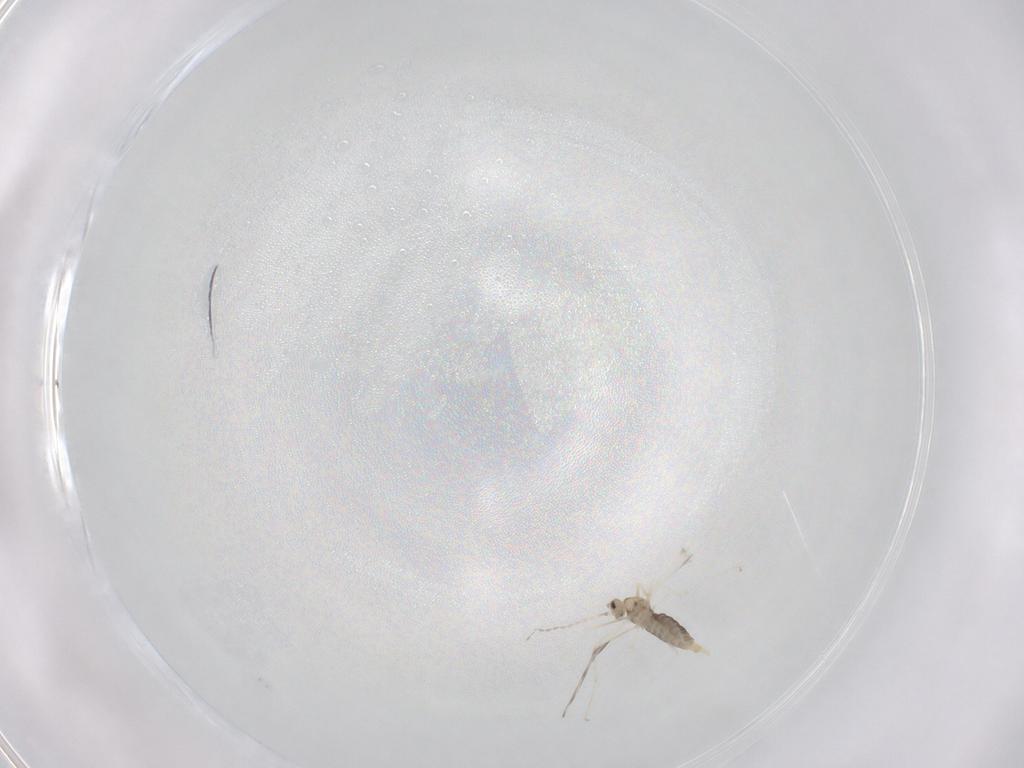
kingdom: Animalia
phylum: Arthropoda
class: Insecta
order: Diptera
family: Cecidomyiidae
